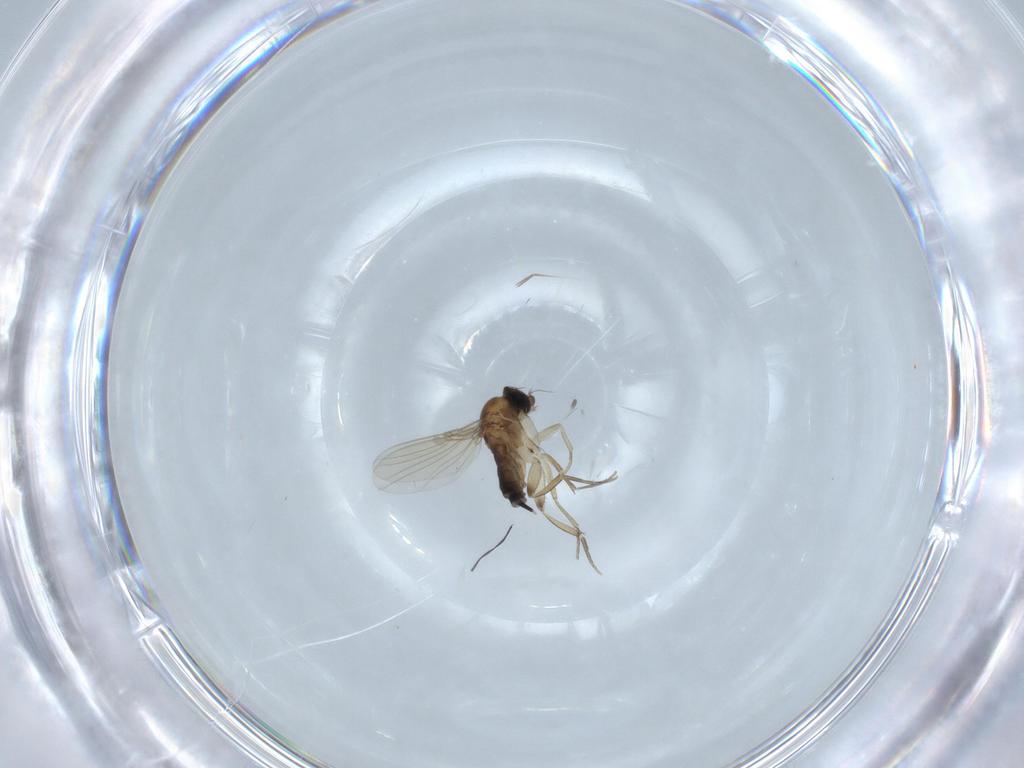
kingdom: Animalia
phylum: Arthropoda
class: Insecta
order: Diptera
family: Phoridae
